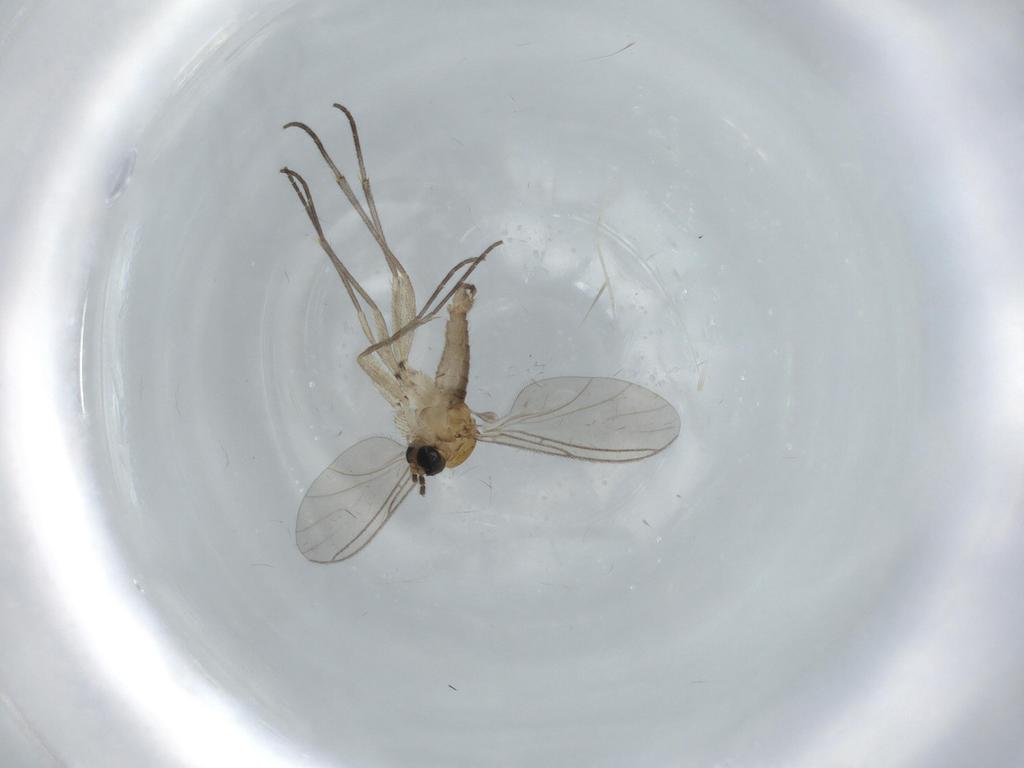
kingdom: Animalia
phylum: Arthropoda
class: Insecta
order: Diptera
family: Sciaridae
